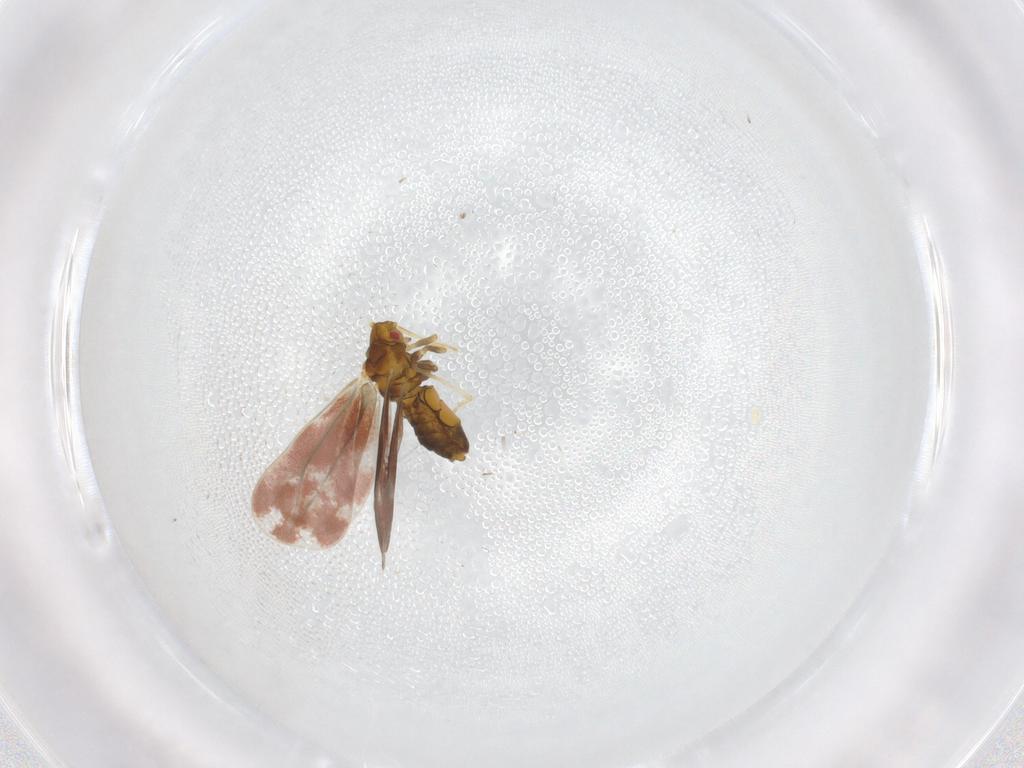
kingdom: Animalia
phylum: Arthropoda
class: Insecta
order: Hemiptera
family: Aleyrodidae
